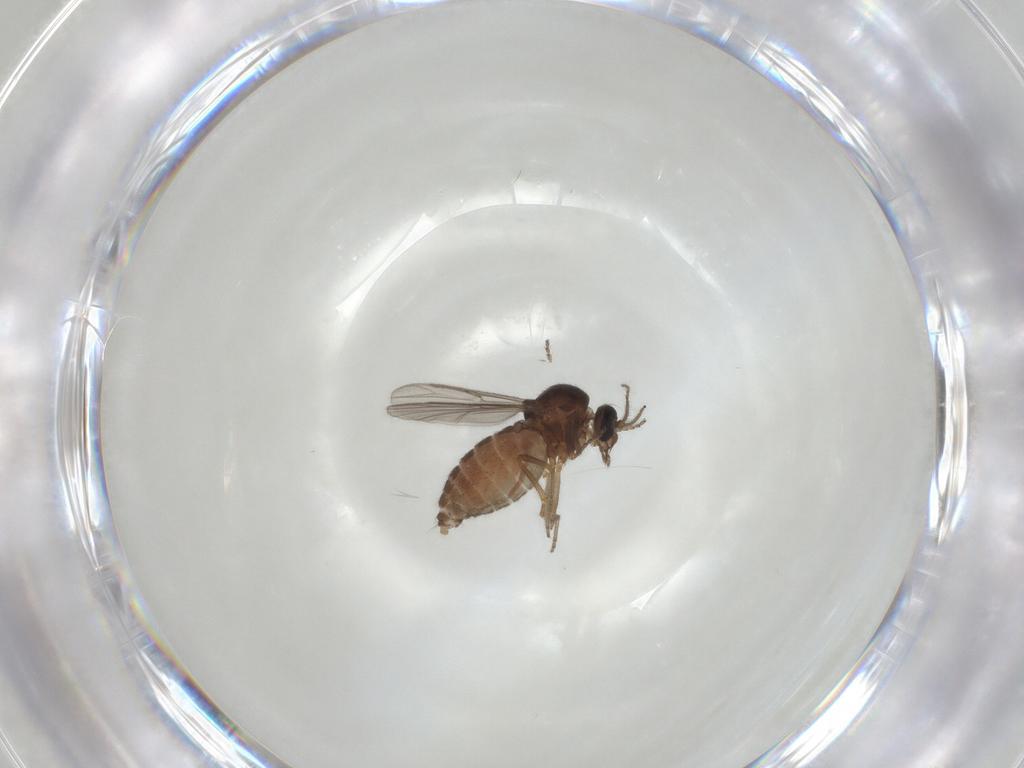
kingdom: Animalia
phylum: Arthropoda
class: Insecta
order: Diptera
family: Ceratopogonidae
